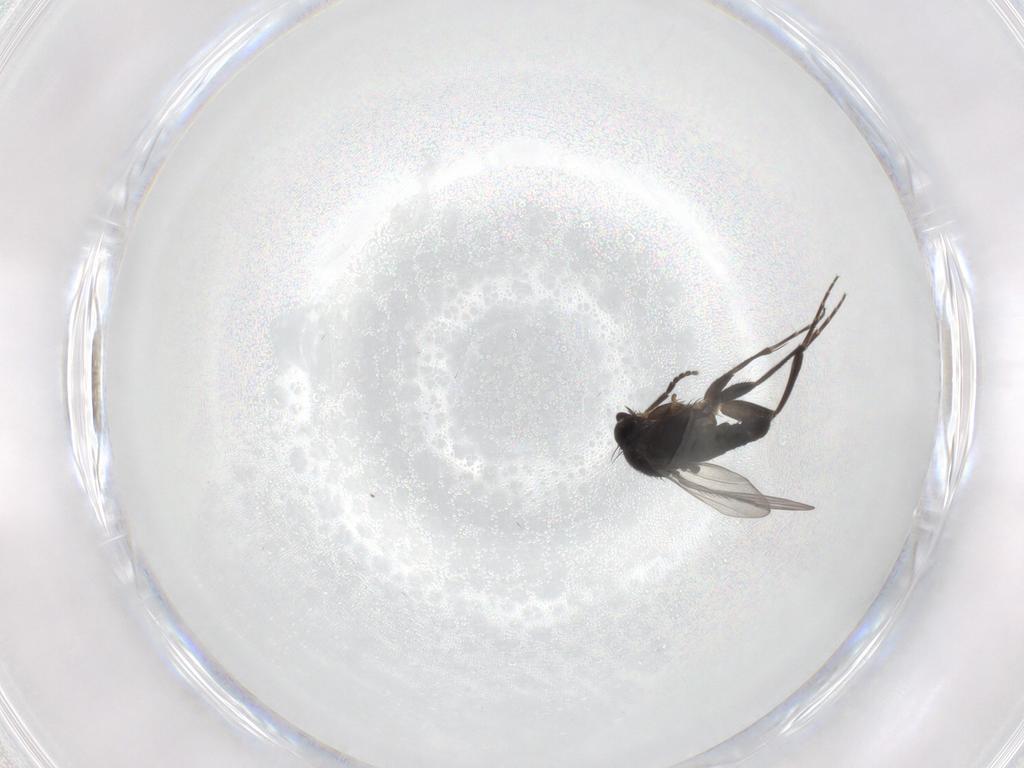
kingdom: Animalia
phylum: Arthropoda
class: Insecta
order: Diptera
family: Phoridae
